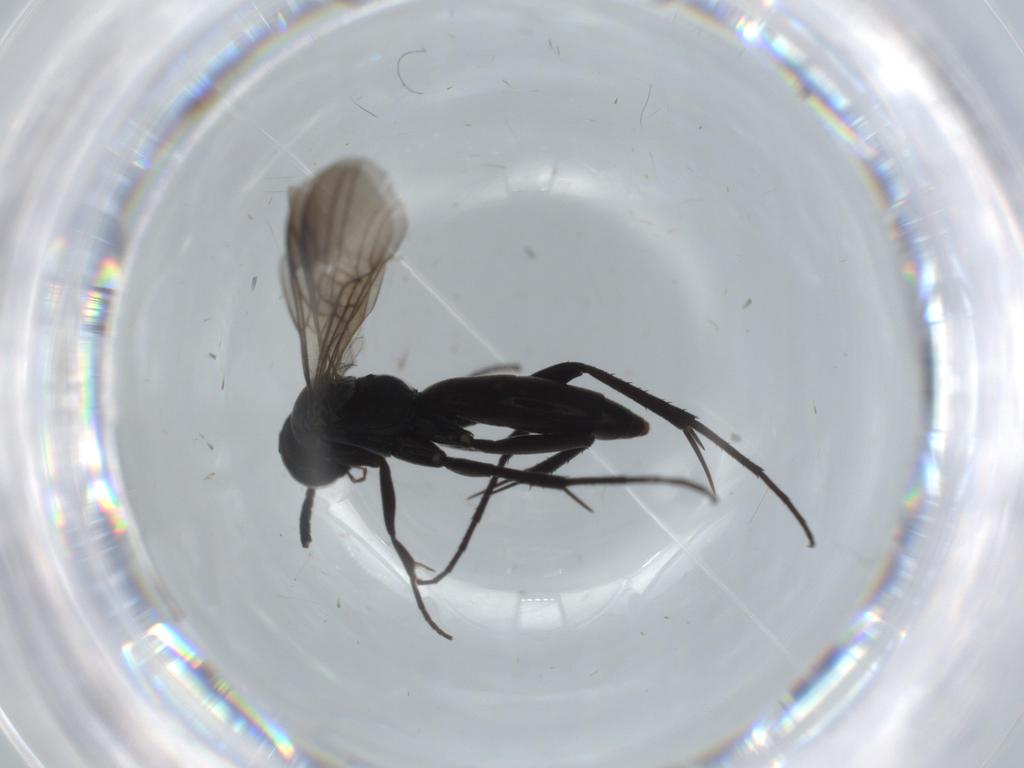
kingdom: Animalia
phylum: Arthropoda
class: Insecta
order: Hymenoptera
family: Pompilidae
